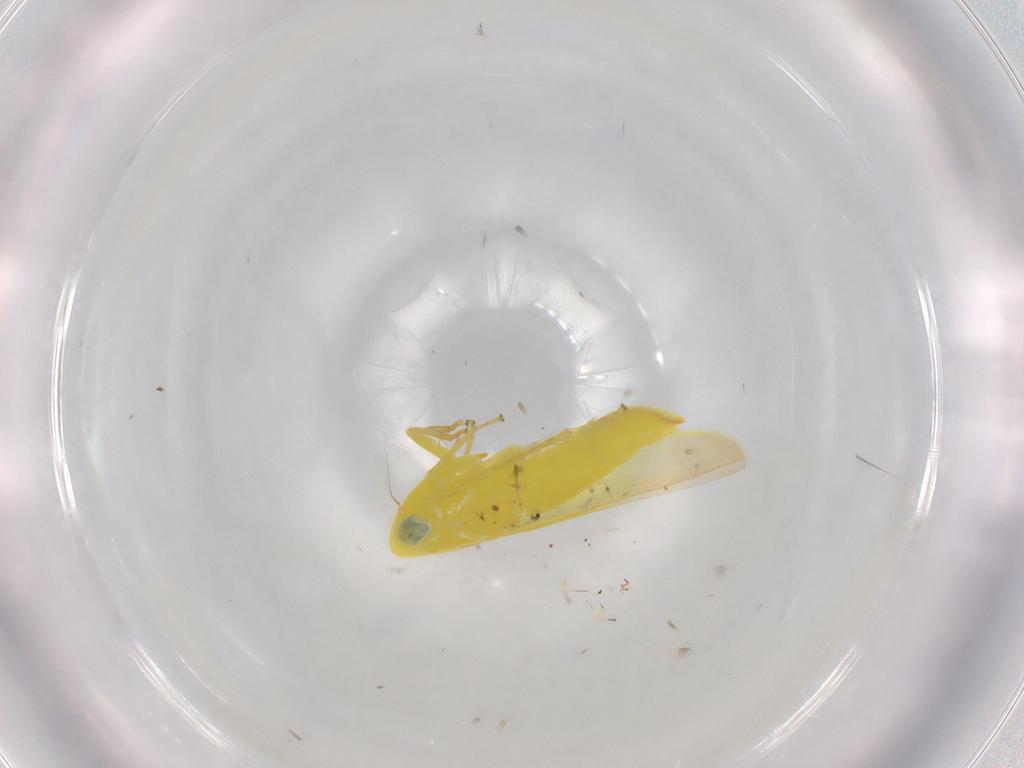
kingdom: Animalia
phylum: Arthropoda
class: Insecta
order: Hemiptera
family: Cicadellidae
